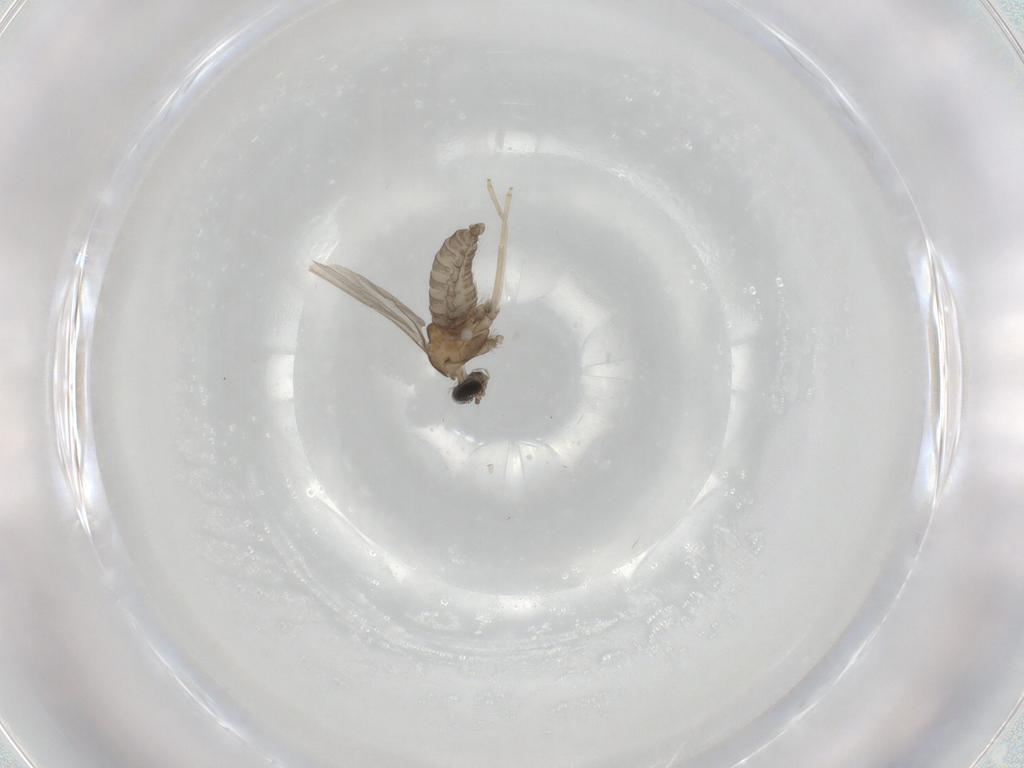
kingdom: Animalia
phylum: Arthropoda
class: Insecta
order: Diptera
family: Cecidomyiidae
